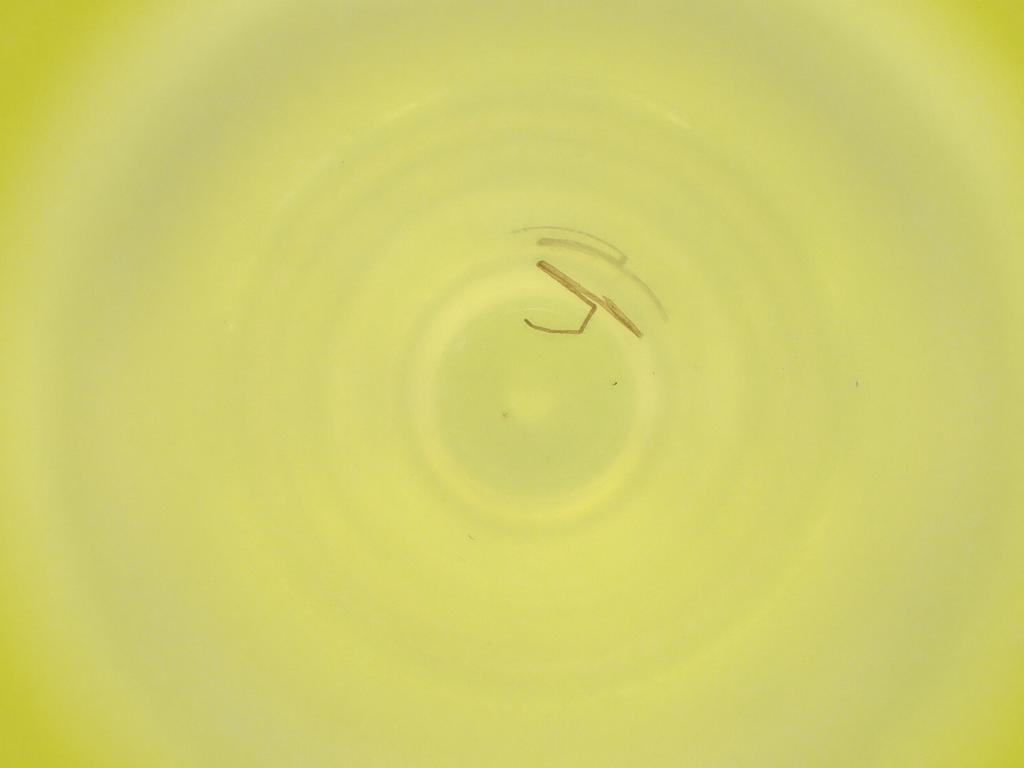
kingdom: Animalia
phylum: Arthropoda
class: Insecta
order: Diptera
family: Cecidomyiidae
